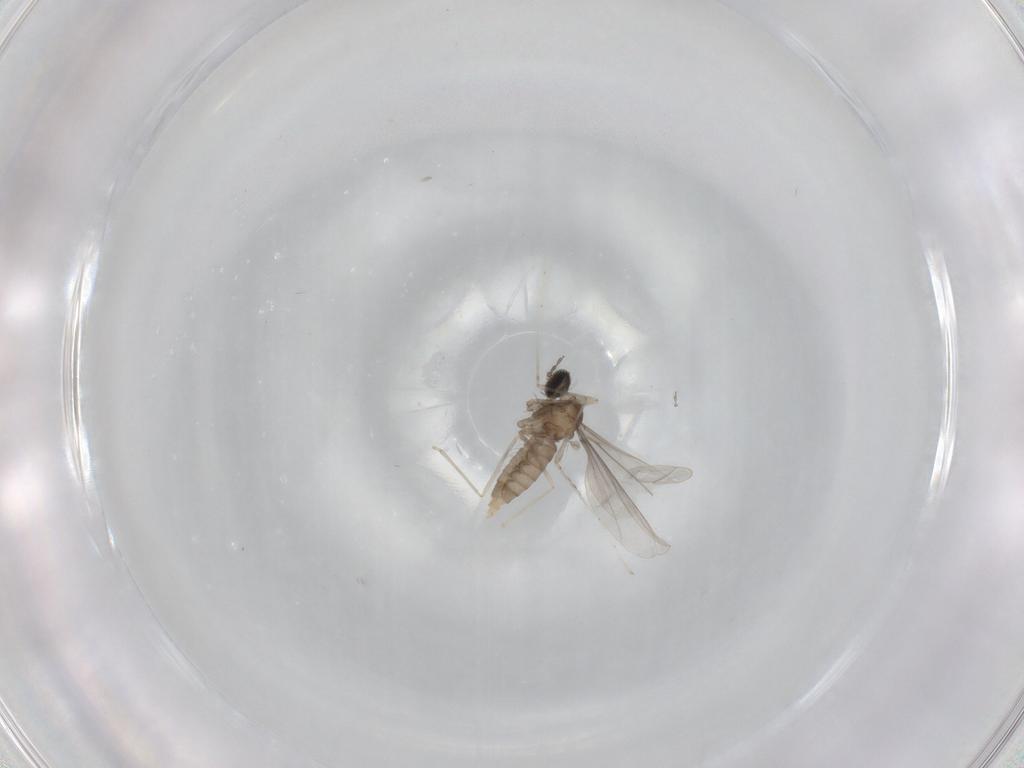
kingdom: Animalia
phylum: Arthropoda
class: Insecta
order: Diptera
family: Cecidomyiidae
